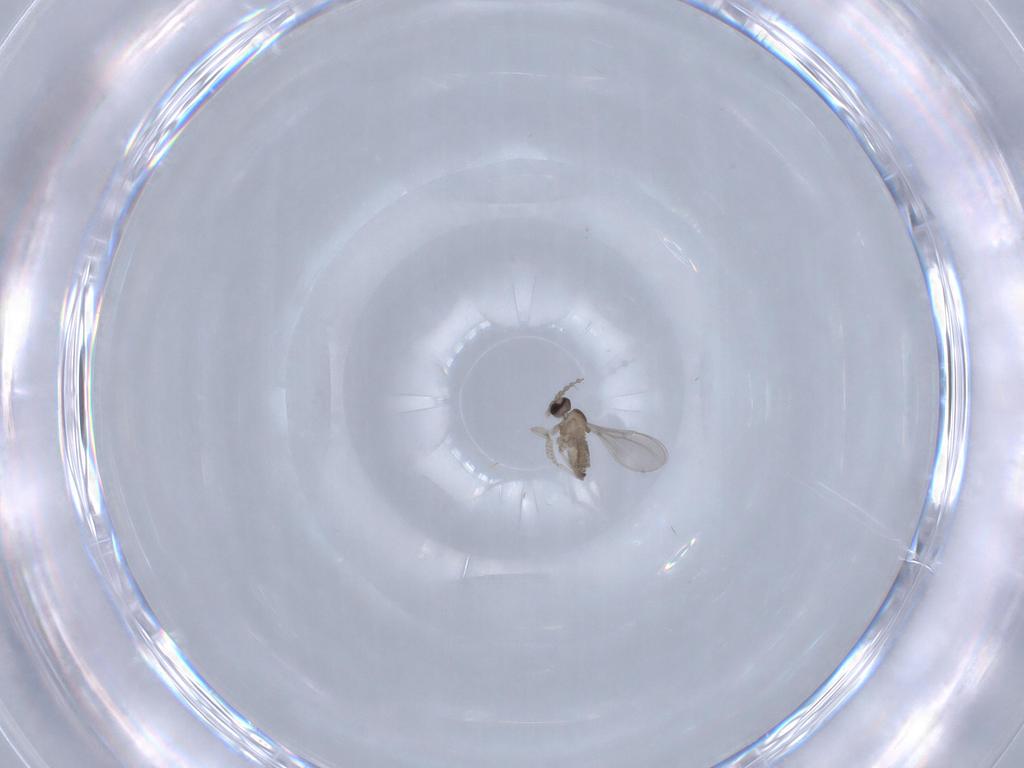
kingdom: Animalia
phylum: Arthropoda
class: Insecta
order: Diptera
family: Cecidomyiidae
